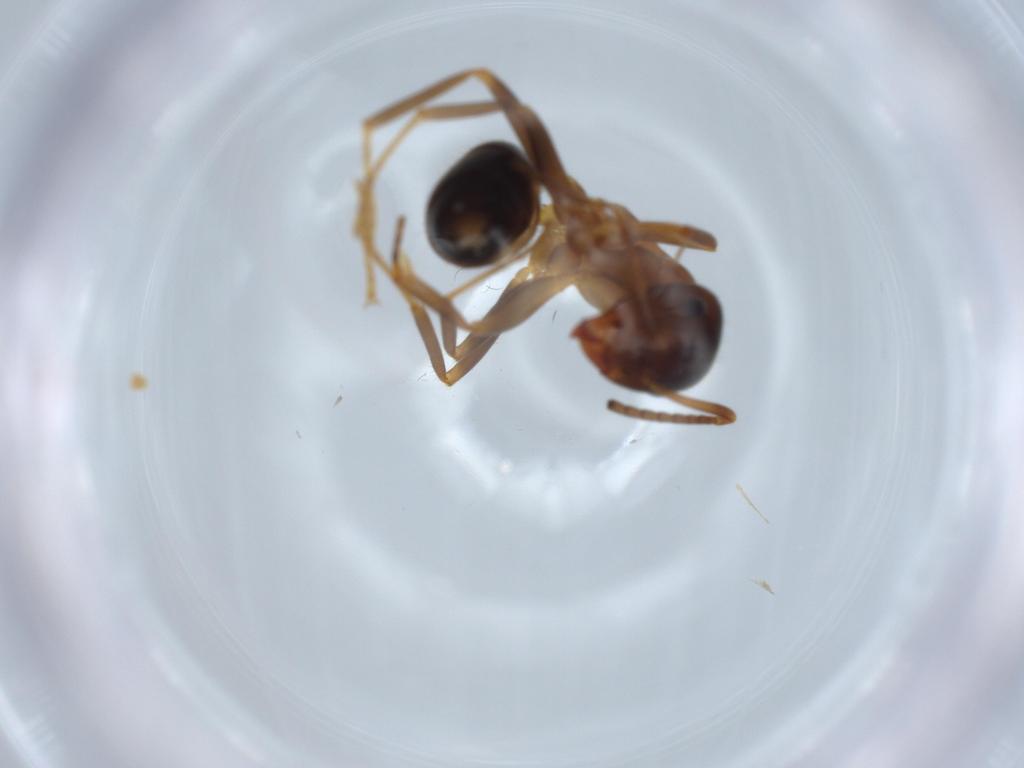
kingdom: Animalia
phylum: Arthropoda
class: Insecta
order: Hymenoptera
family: Formicidae
